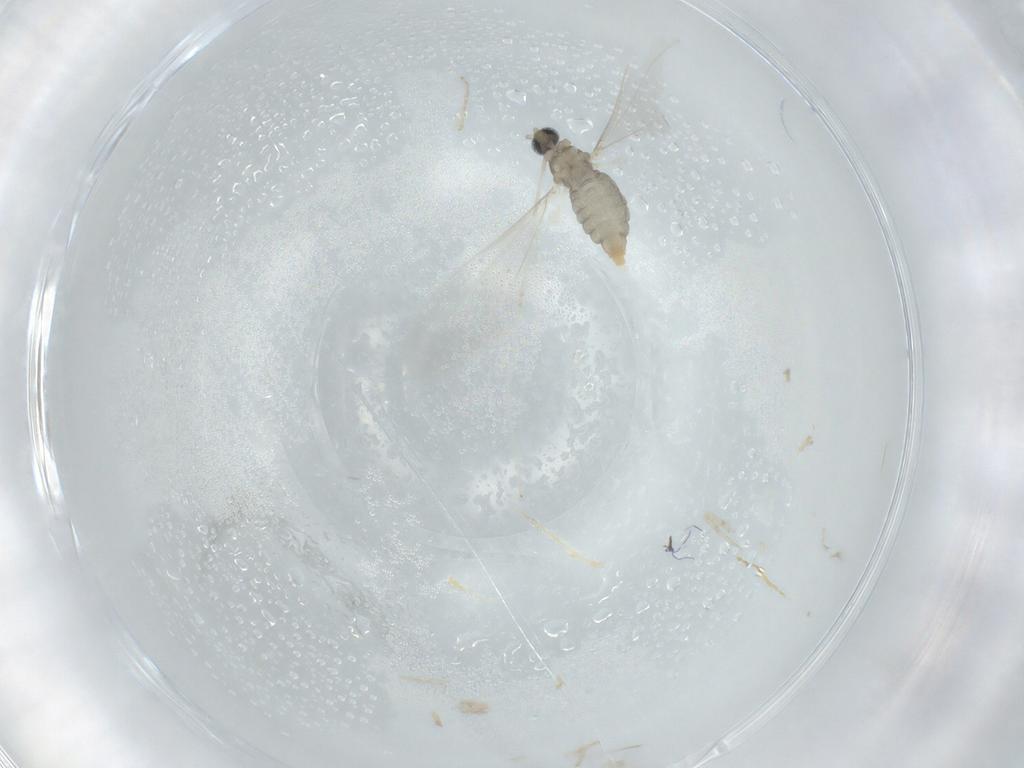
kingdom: Animalia
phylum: Arthropoda
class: Insecta
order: Diptera
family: Cecidomyiidae
